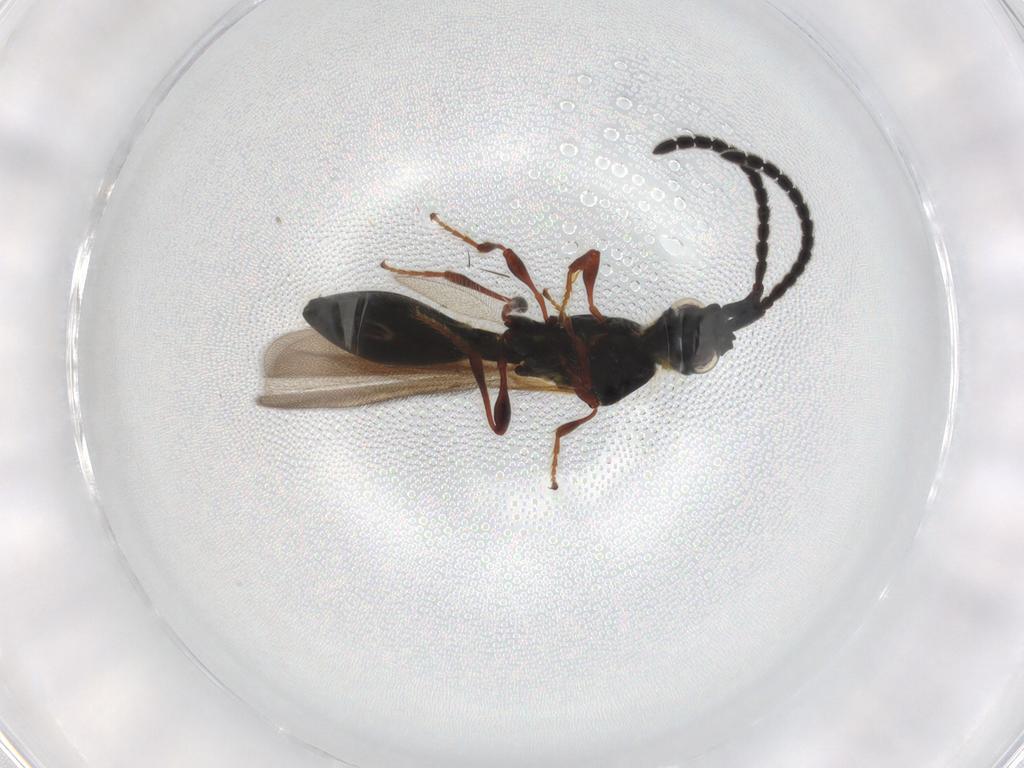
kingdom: Animalia
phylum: Arthropoda
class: Insecta
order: Hymenoptera
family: Diapriidae
